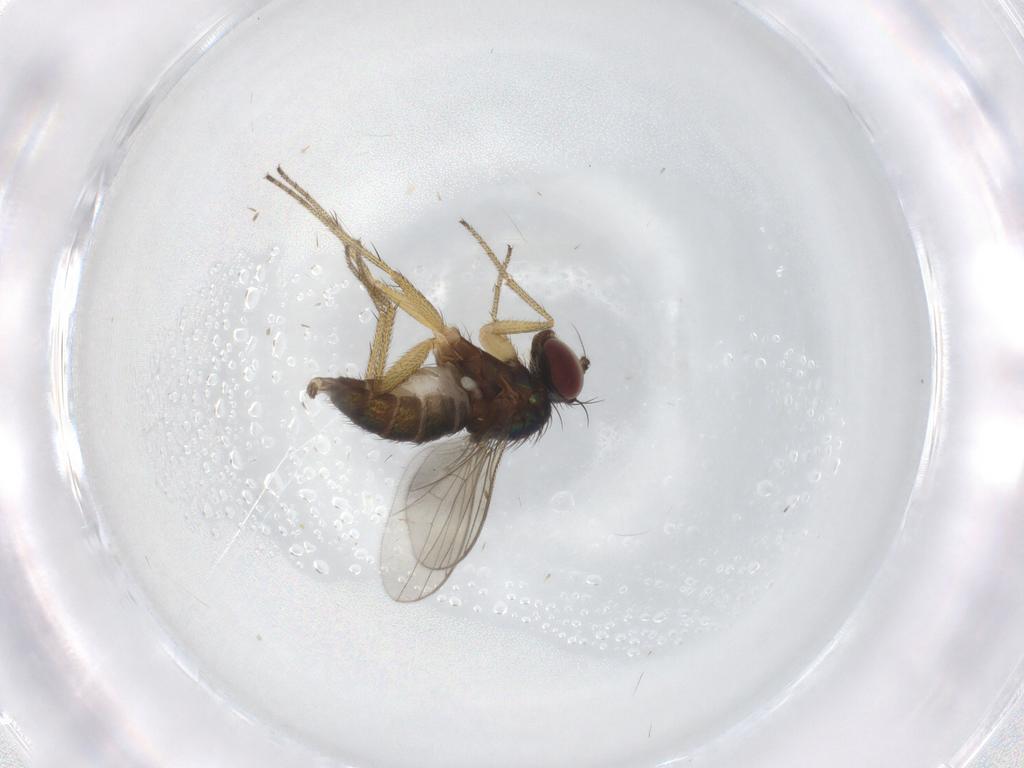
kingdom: Animalia
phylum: Arthropoda
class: Insecta
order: Diptera
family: Dolichopodidae
